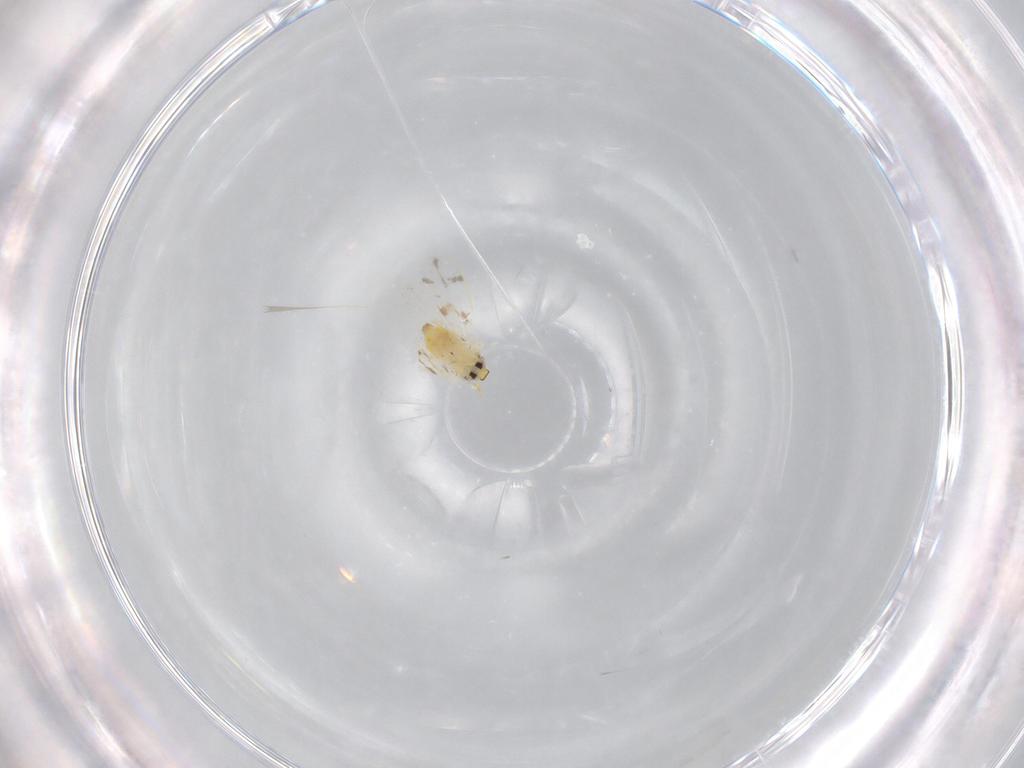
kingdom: Animalia
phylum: Arthropoda
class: Insecta
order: Hemiptera
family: Aleyrodidae
